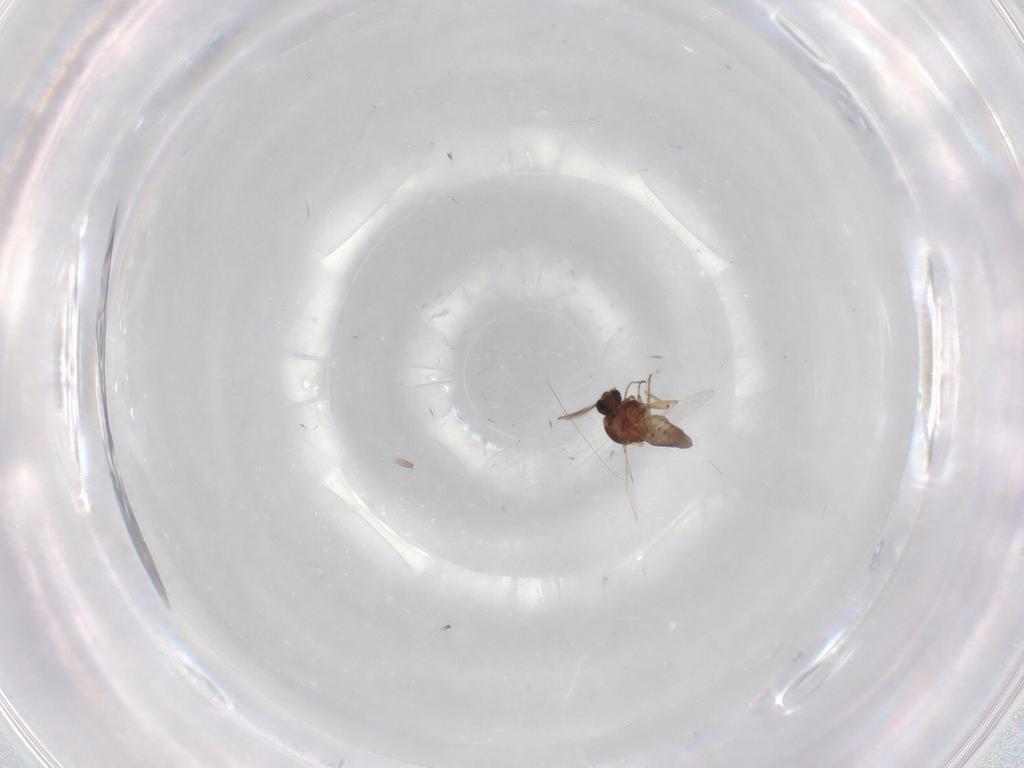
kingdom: Animalia
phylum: Arthropoda
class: Insecta
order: Diptera
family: Ceratopogonidae
